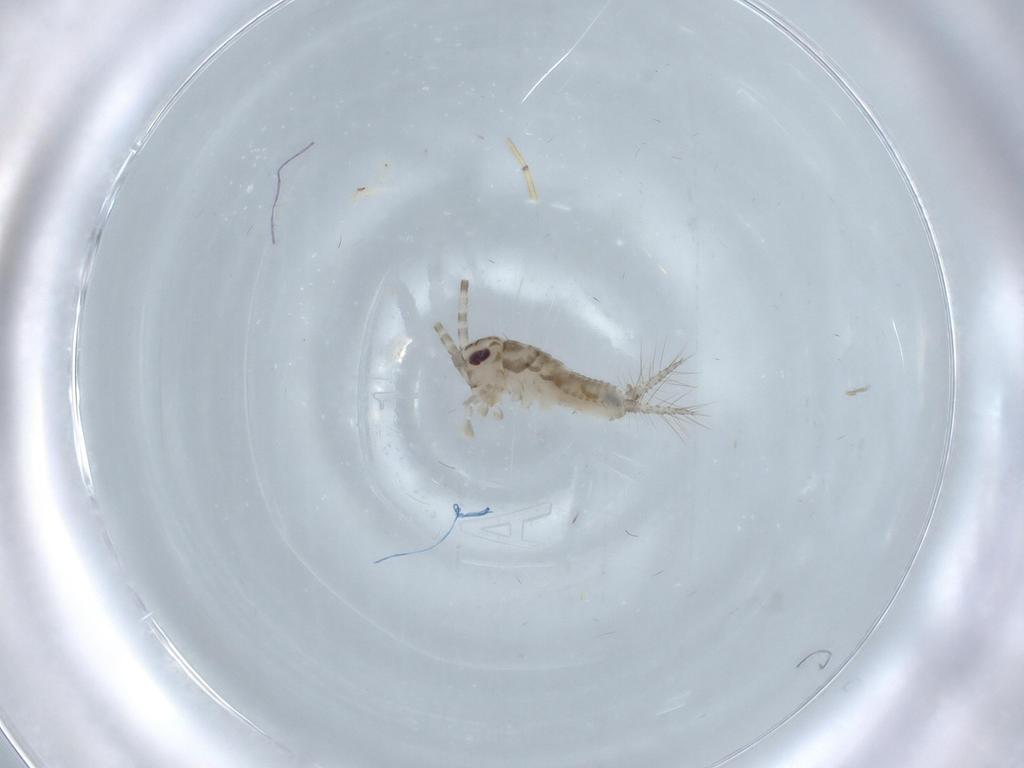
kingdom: Animalia
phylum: Arthropoda
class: Insecta
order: Orthoptera
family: Trigonidiidae
